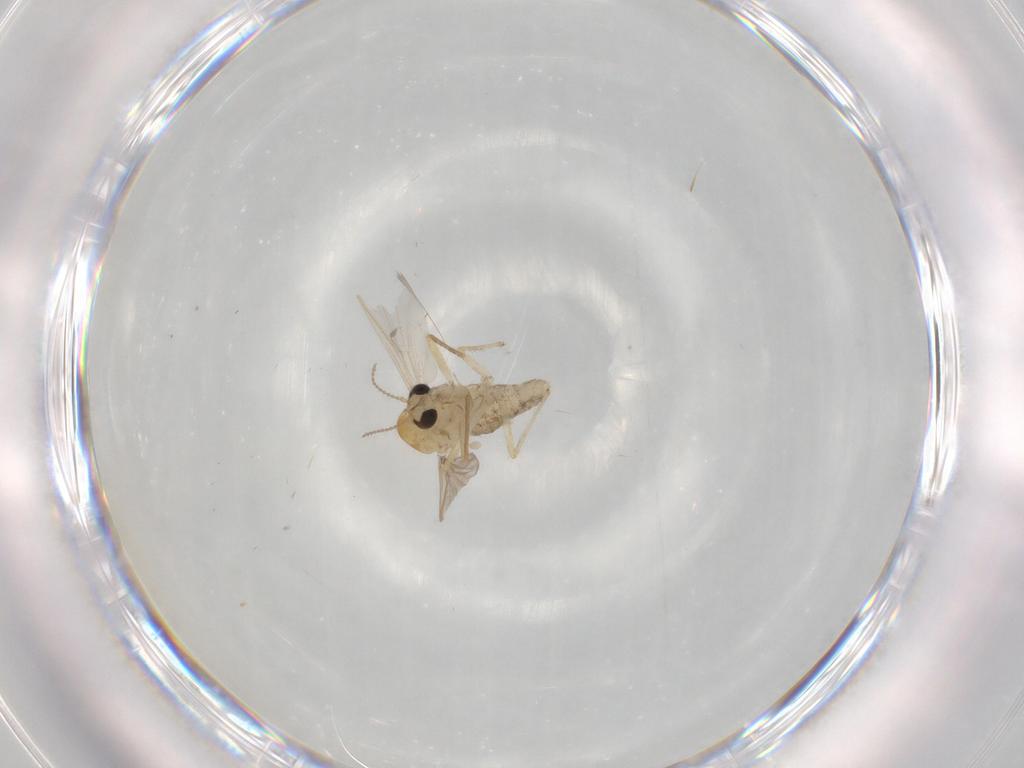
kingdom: Animalia
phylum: Arthropoda
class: Insecta
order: Diptera
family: Chironomidae
